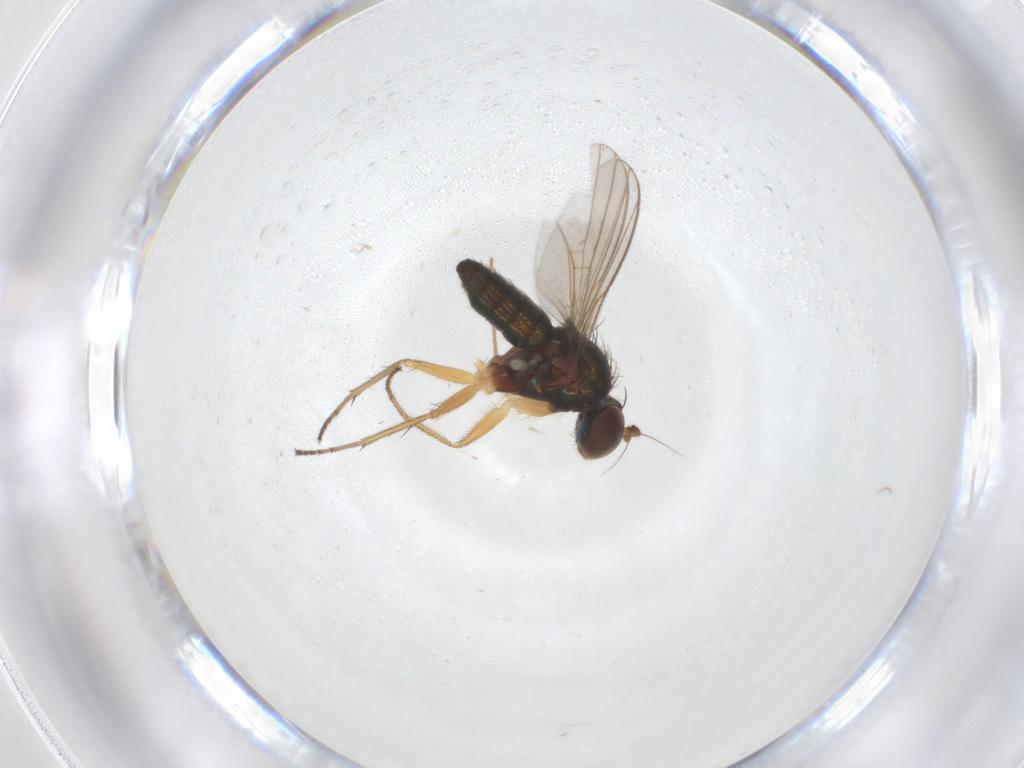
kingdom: Animalia
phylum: Arthropoda
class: Insecta
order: Diptera
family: Chironomidae
